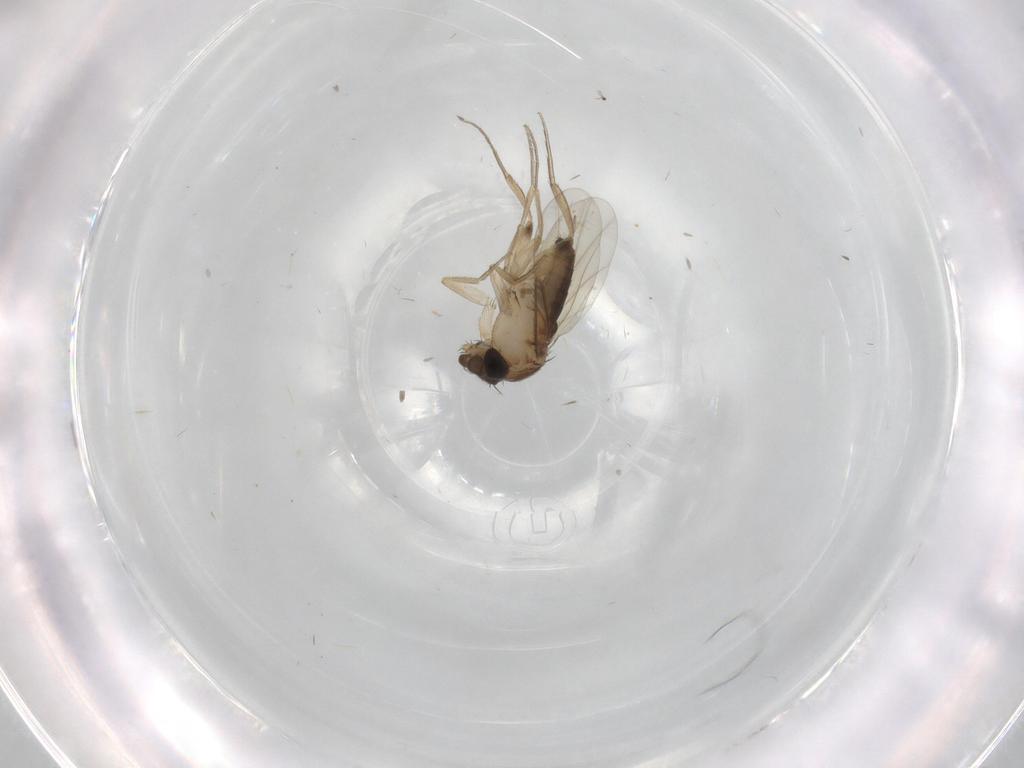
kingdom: Animalia
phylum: Arthropoda
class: Insecta
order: Diptera
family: Phoridae
